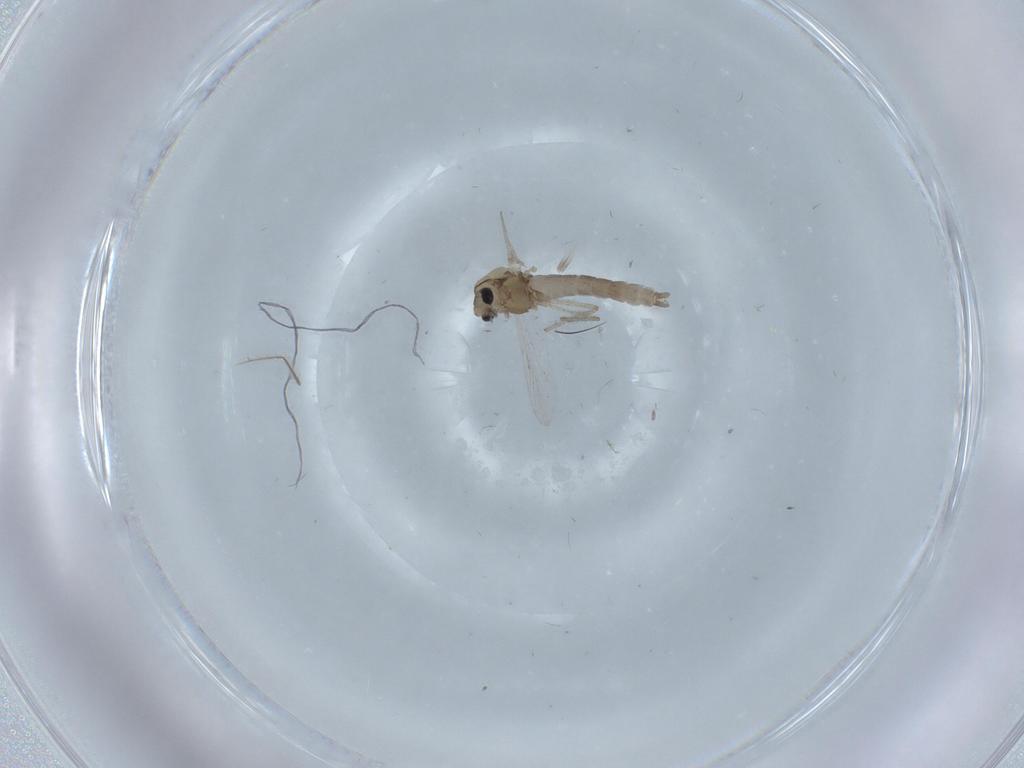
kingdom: Animalia
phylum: Arthropoda
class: Insecta
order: Diptera
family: Chironomidae
